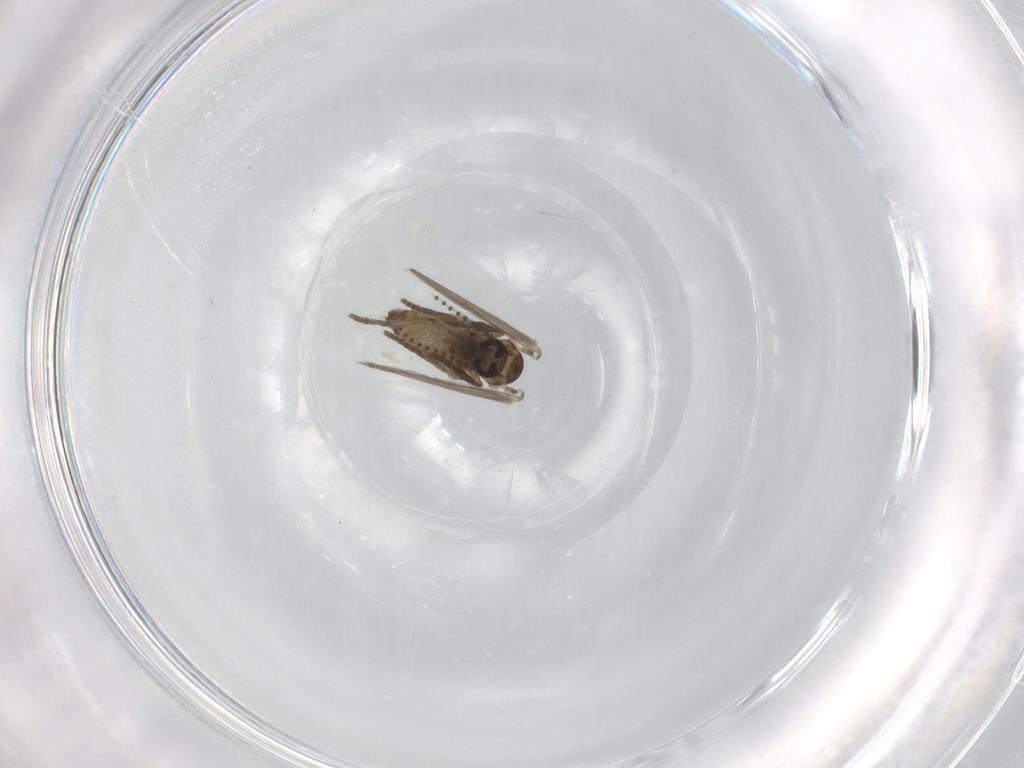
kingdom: Animalia
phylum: Arthropoda
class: Insecta
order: Diptera
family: Psychodidae
